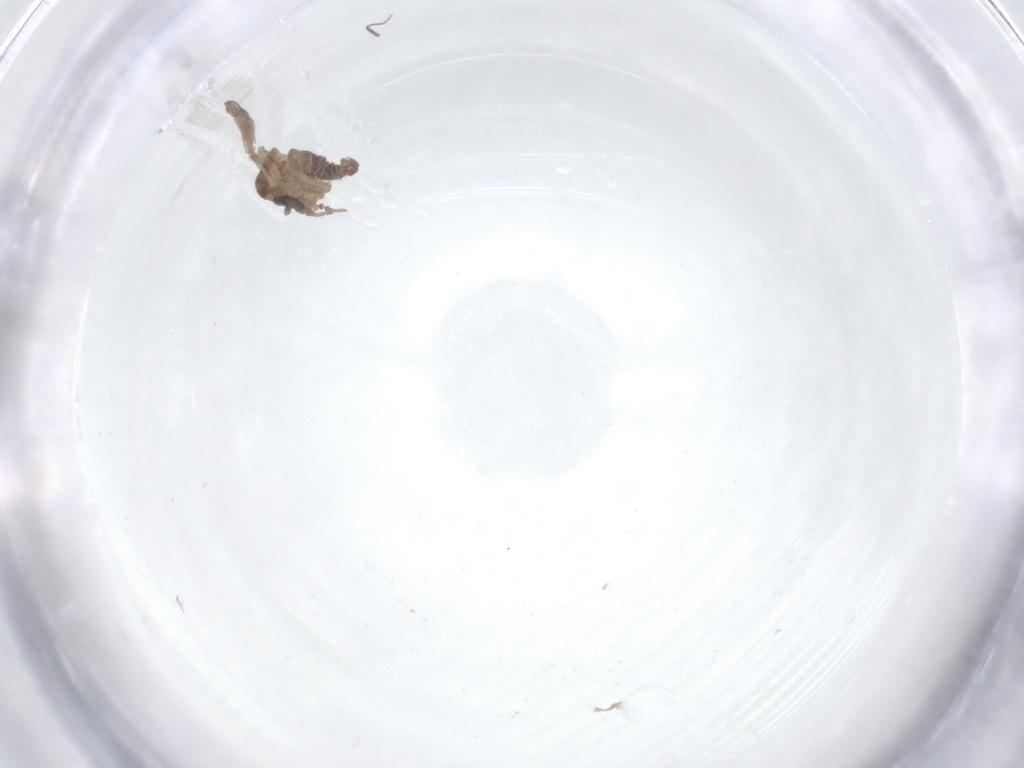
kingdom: Animalia
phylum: Arthropoda
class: Insecta
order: Diptera
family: Psychodidae
